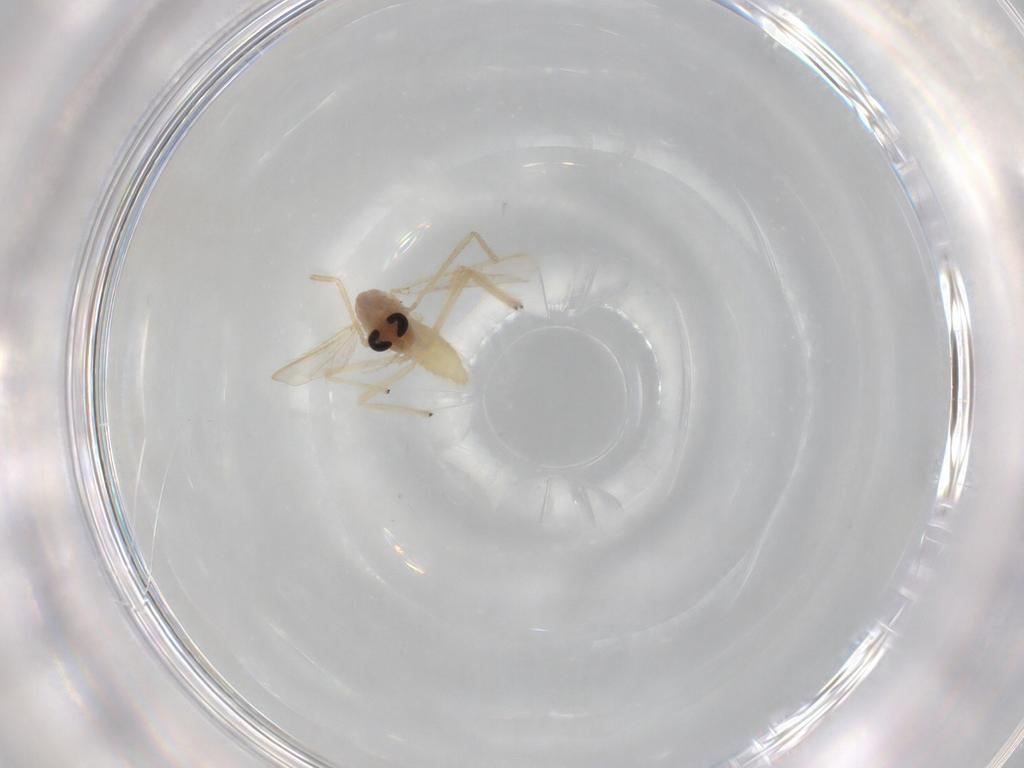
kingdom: Animalia
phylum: Arthropoda
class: Insecta
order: Diptera
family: Chironomidae
